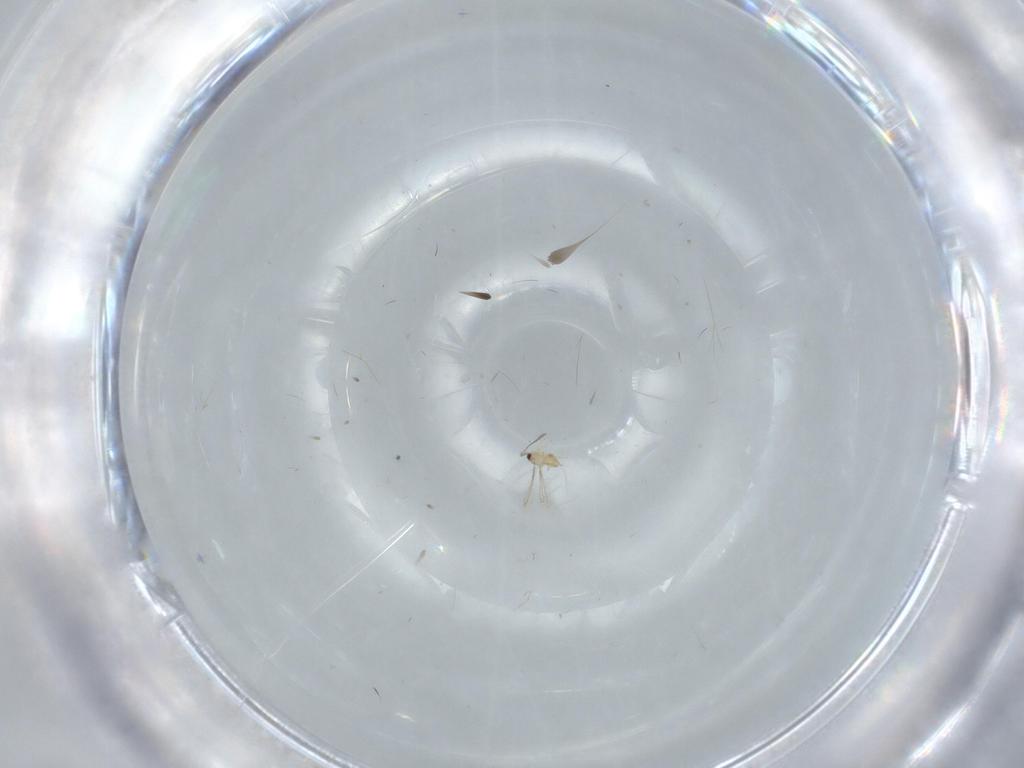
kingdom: Animalia
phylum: Arthropoda
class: Insecta
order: Hymenoptera
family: Mymaridae
